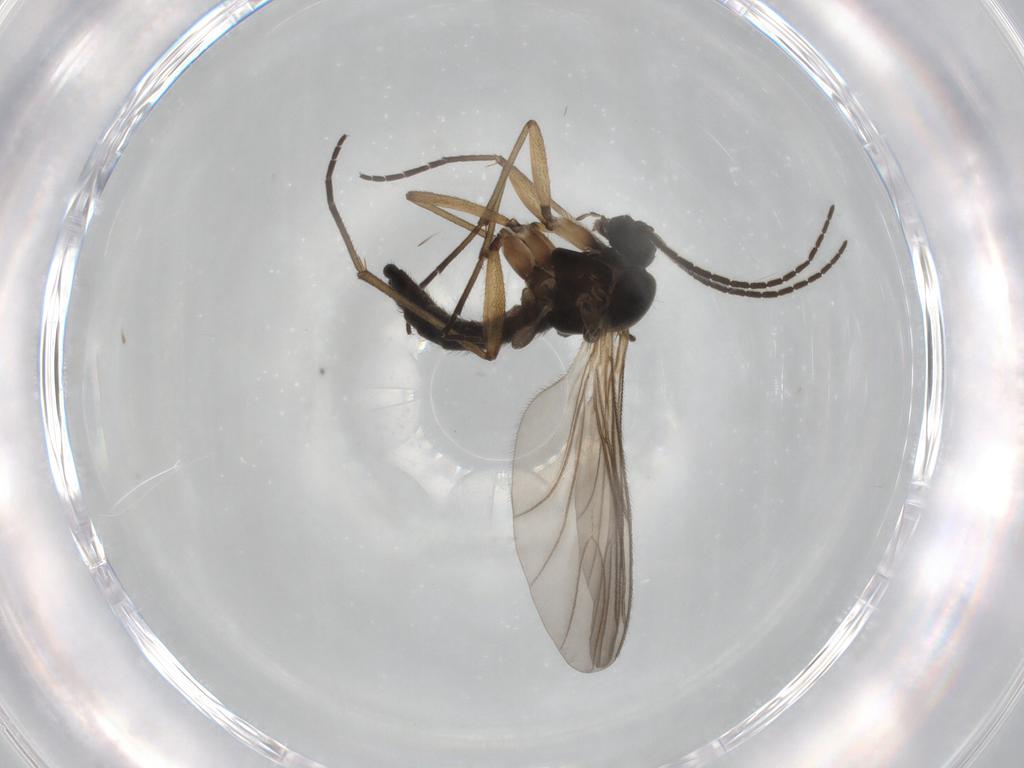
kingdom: Animalia
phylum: Arthropoda
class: Insecta
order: Diptera
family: Sciaridae
